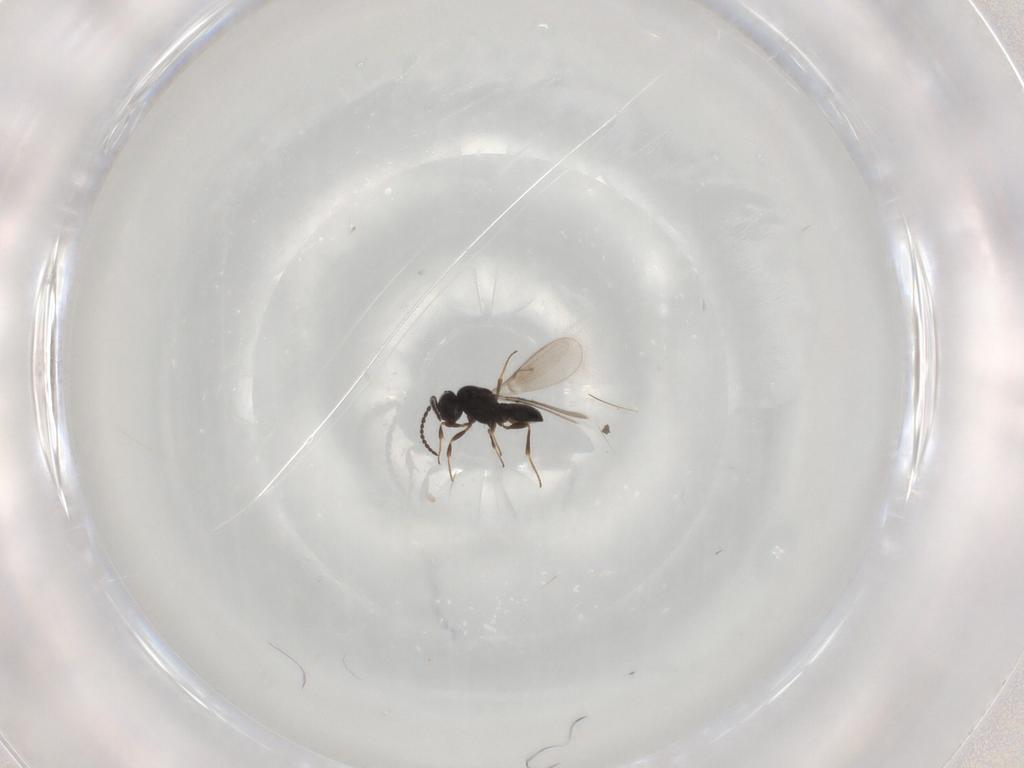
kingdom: Animalia
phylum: Arthropoda
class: Insecta
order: Hymenoptera
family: Scelionidae
